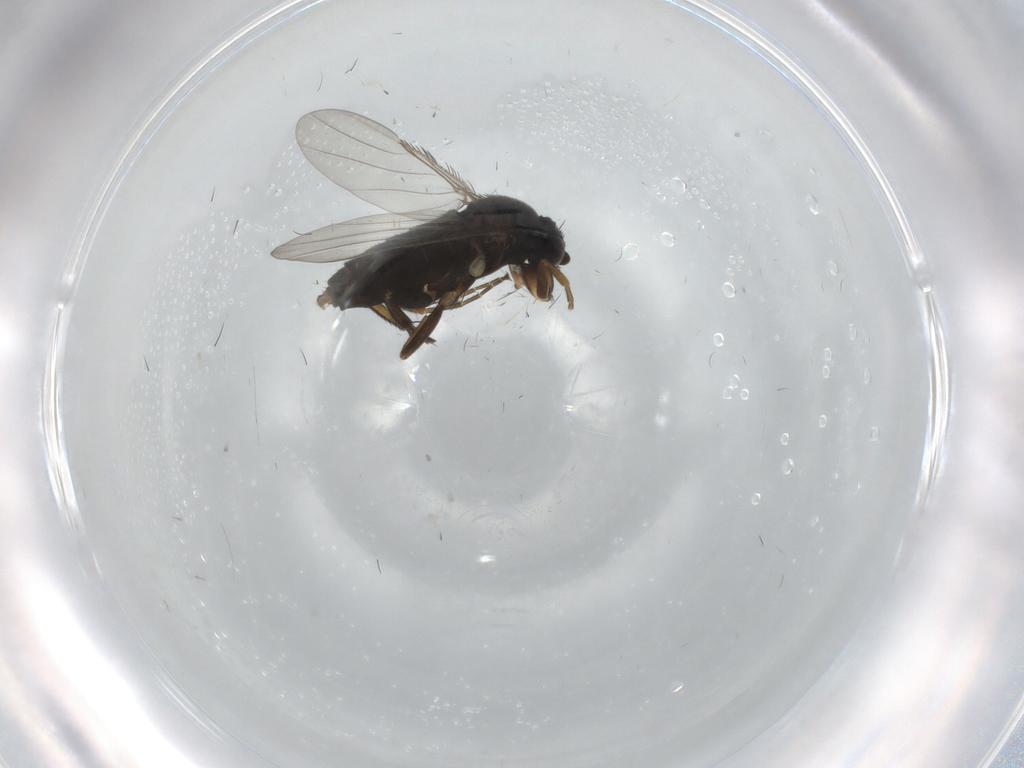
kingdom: Animalia
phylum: Arthropoda
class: Insecta
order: Diptera
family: Phoridae
